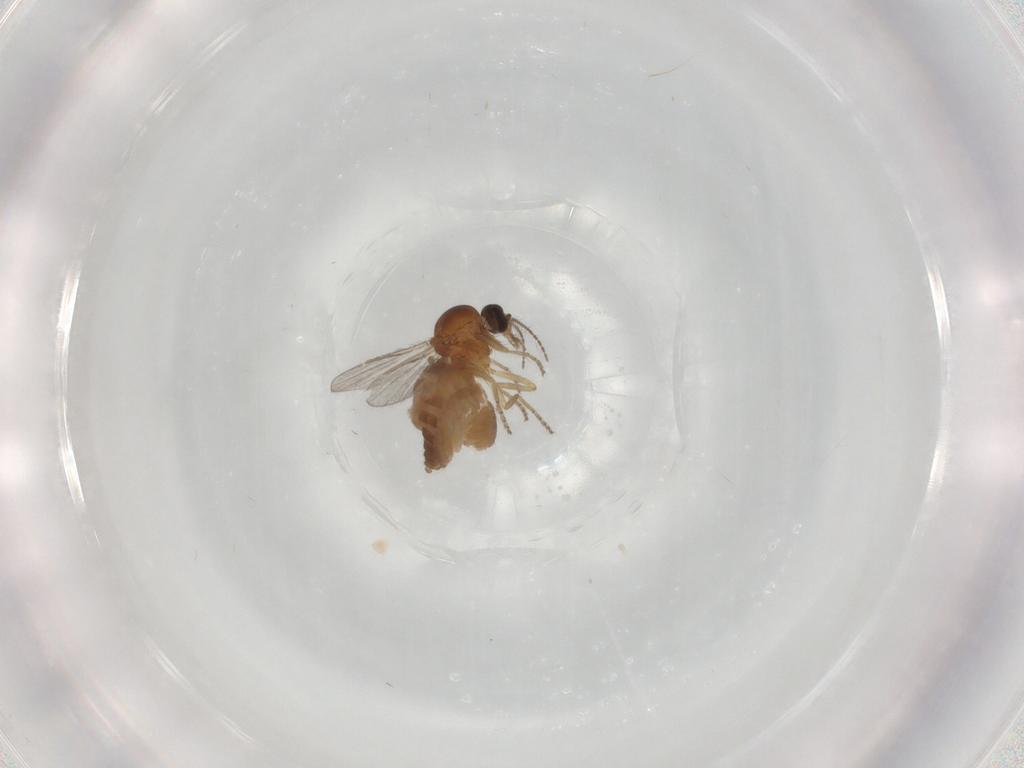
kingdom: Animalia
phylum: Arthropoda
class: Insecta
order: Diptera
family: Ceratopogonidae
